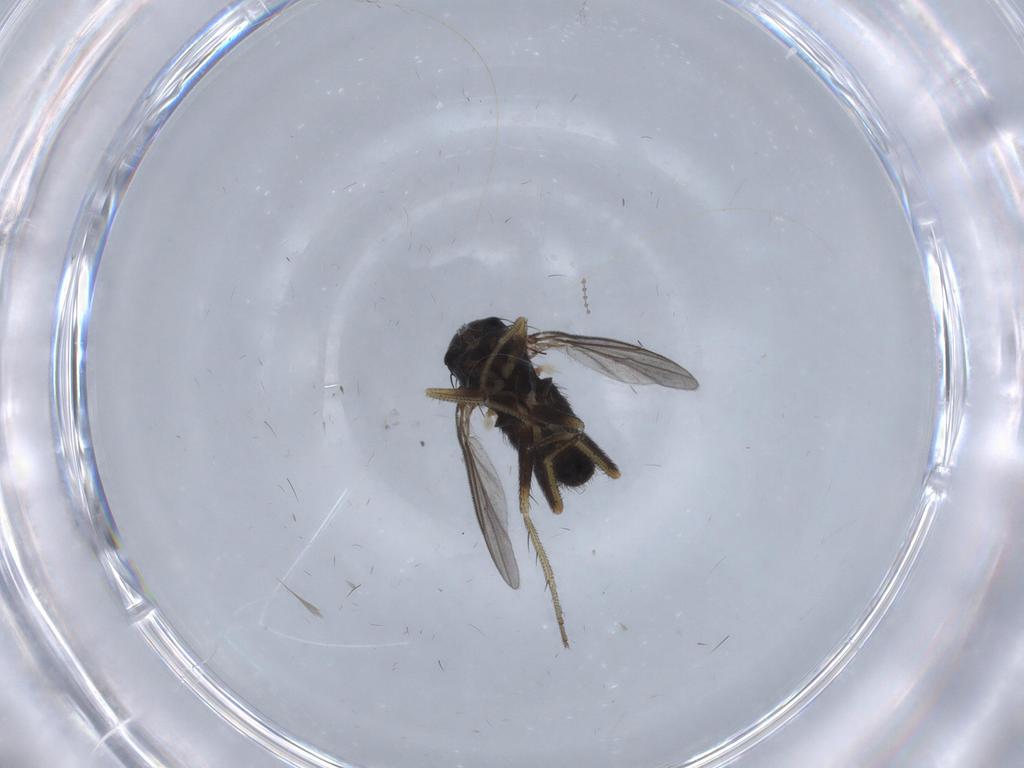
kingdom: Animalia
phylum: Arthropoda
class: Insecta
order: Diptera
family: Dolichopodidae
